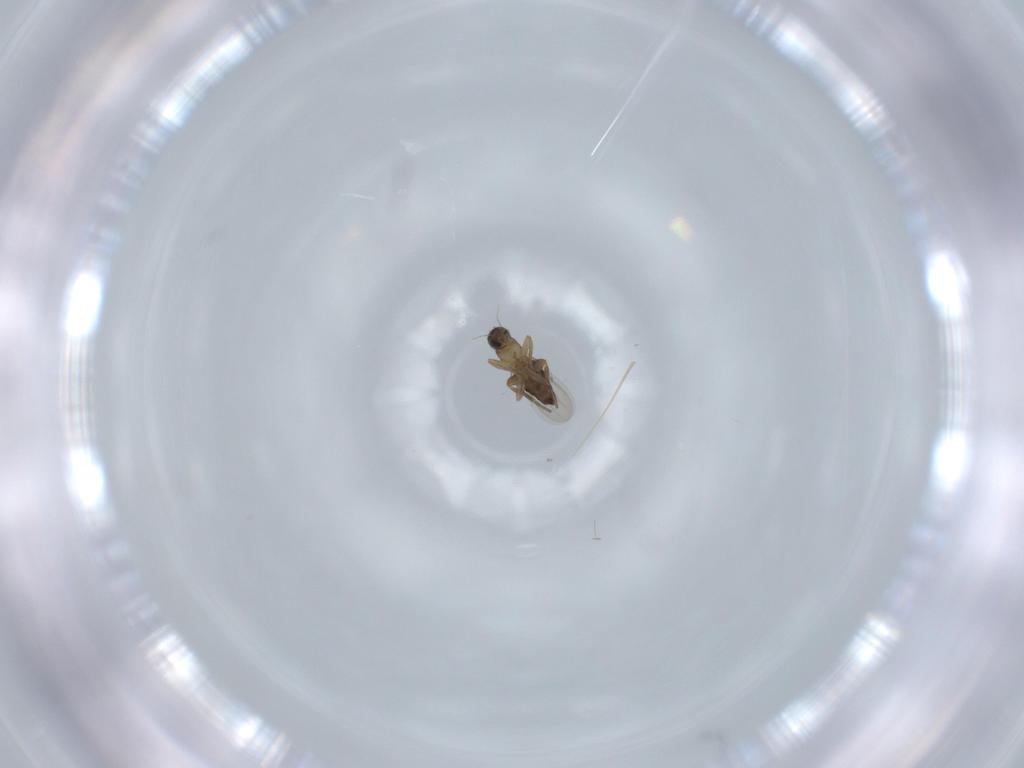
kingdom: Animalia
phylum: Arthropoda
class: Insecta
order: Diptera
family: Phoridae
